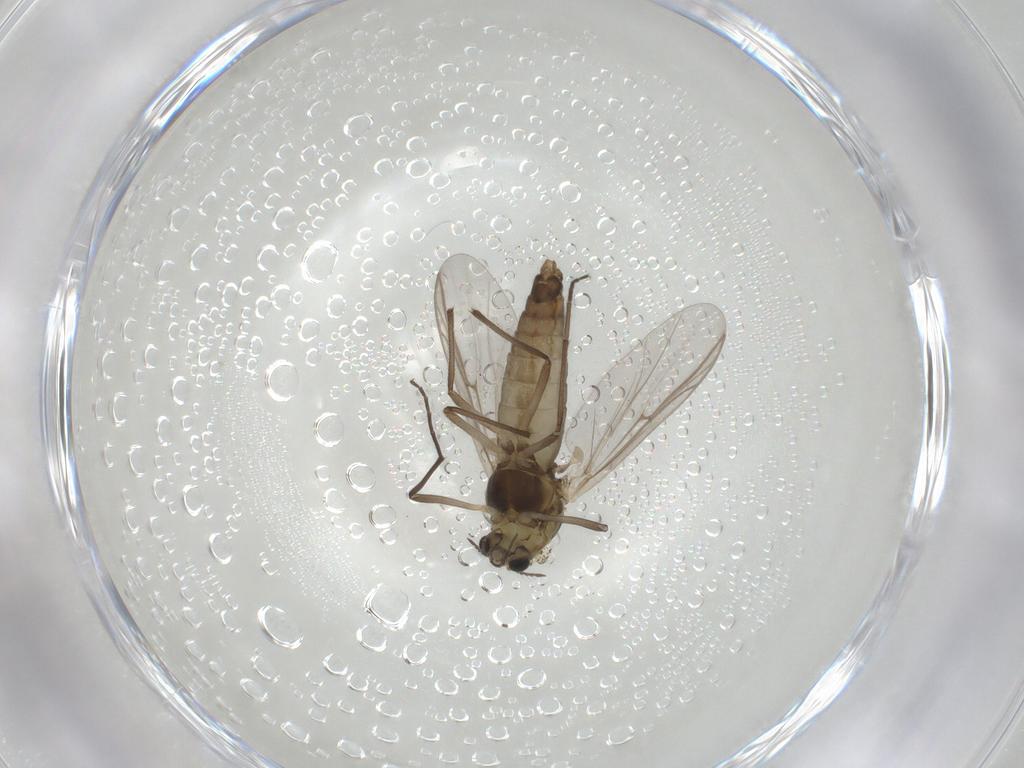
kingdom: Animalia
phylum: Arthropoda
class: Insecta
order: Diptera
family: Chironomidae
